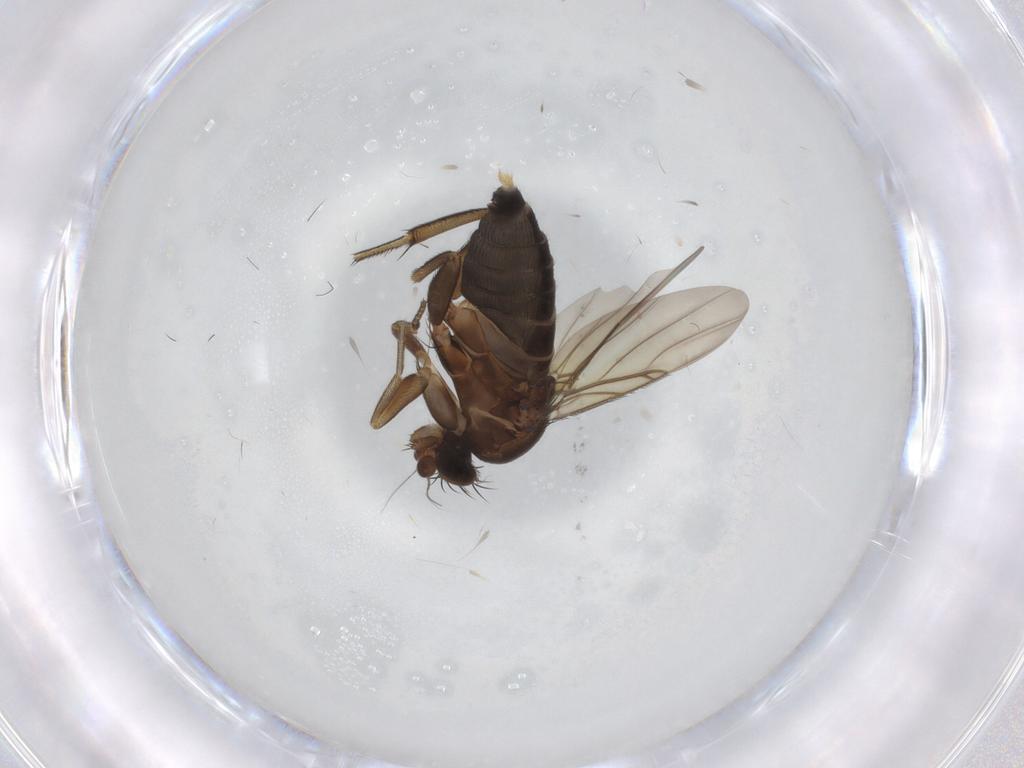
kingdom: Animalia
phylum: Arthropoda
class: Insecta
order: Diptera
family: Phoridae
